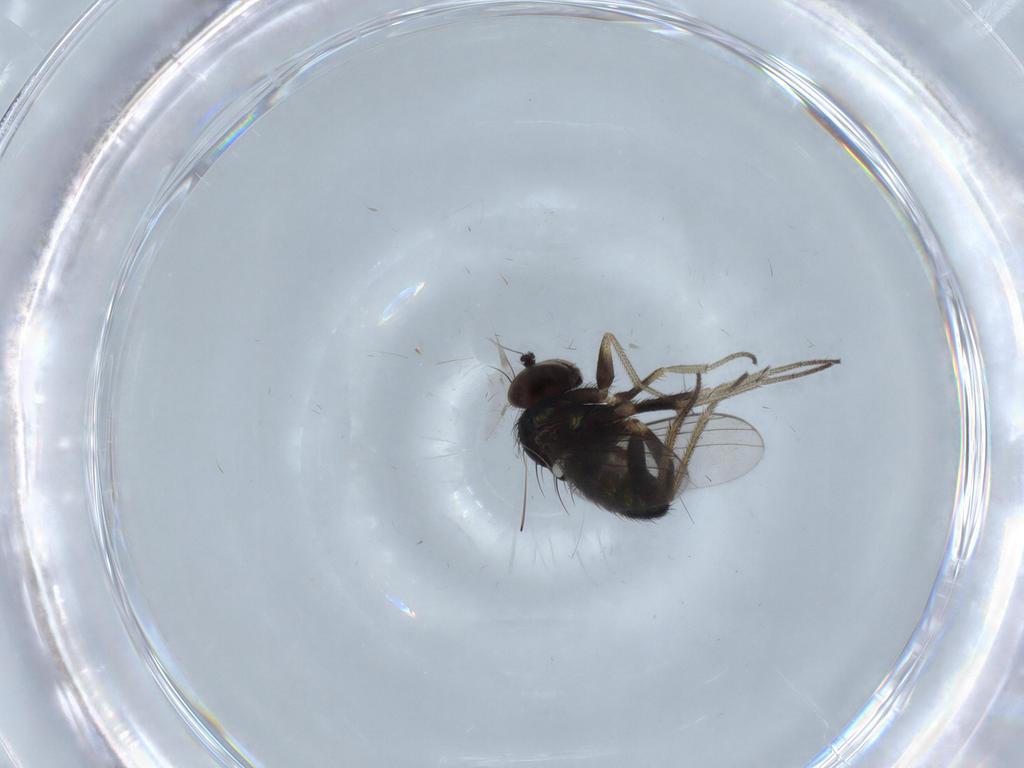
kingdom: Animalia
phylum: Arthropoda
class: Insecta
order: Diptera
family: Dolichopodidae
